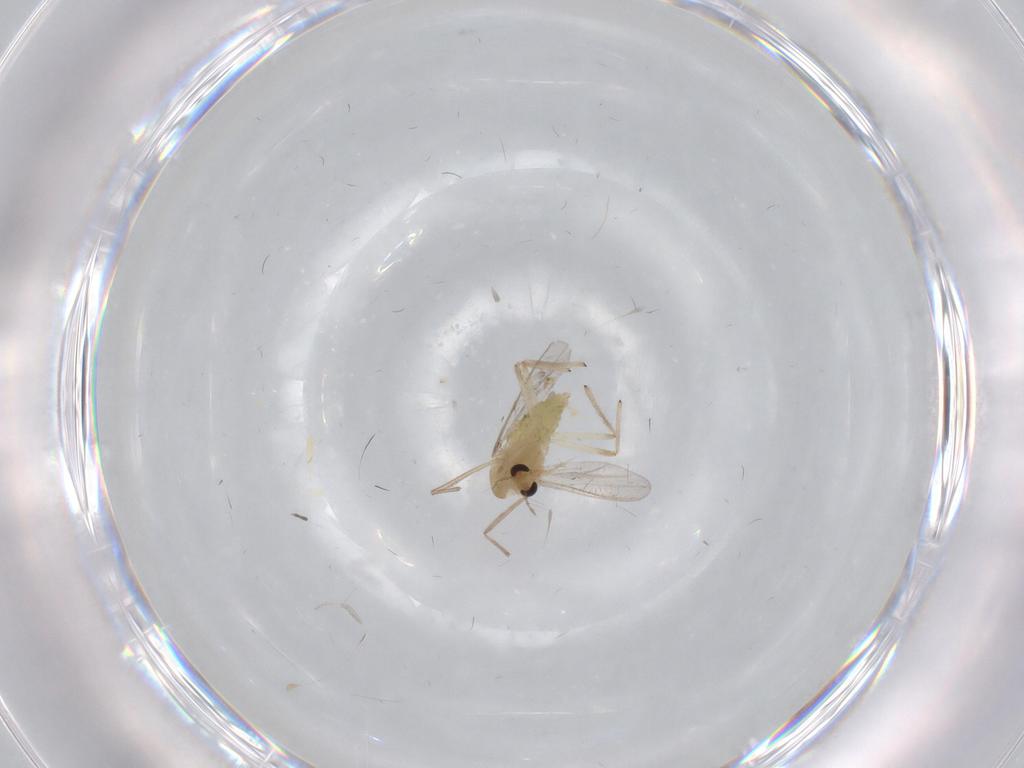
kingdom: Animalia
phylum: Arthropoda
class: Insecta
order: Diptera
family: Chironomidae
